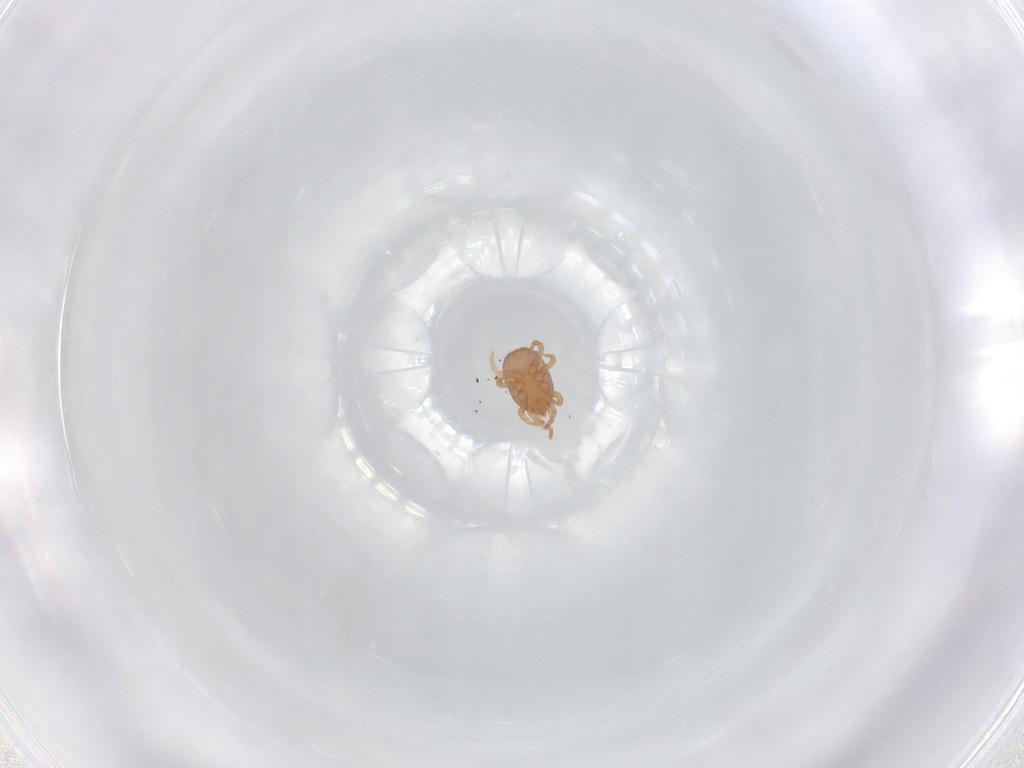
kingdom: Animalia
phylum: Arthropoda
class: Arachnida
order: Mesostigmata
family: Eviphididae
